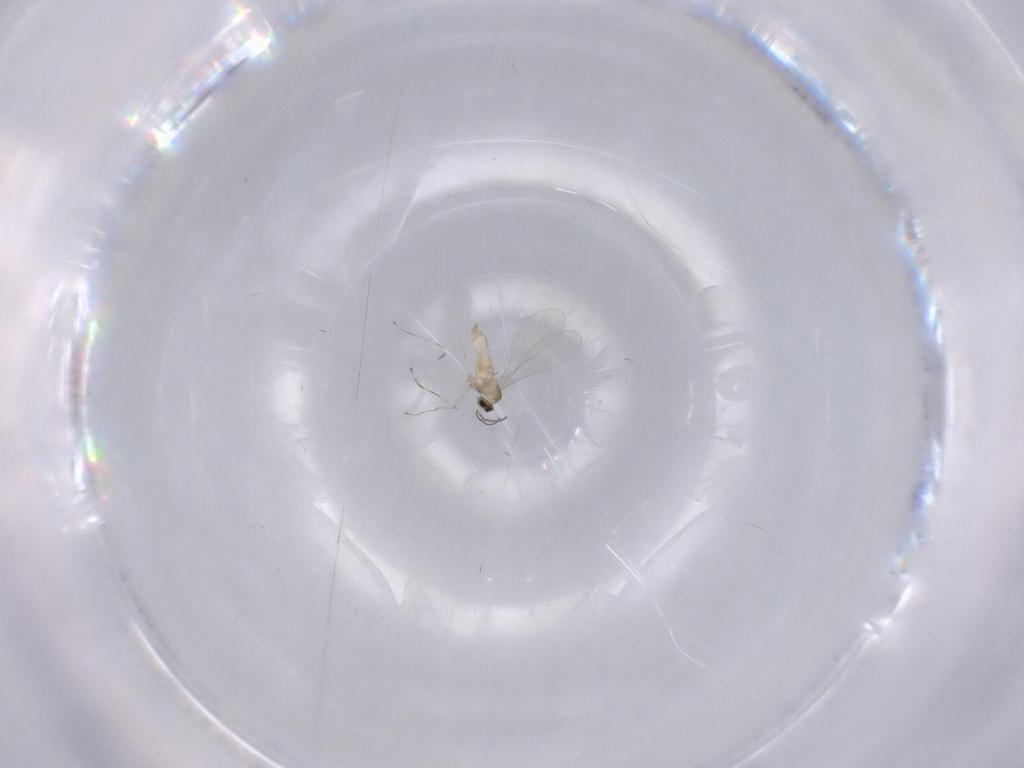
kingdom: Animalia
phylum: Arthropoda
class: Insecta
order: Diptera
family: Cecidomyiidae
